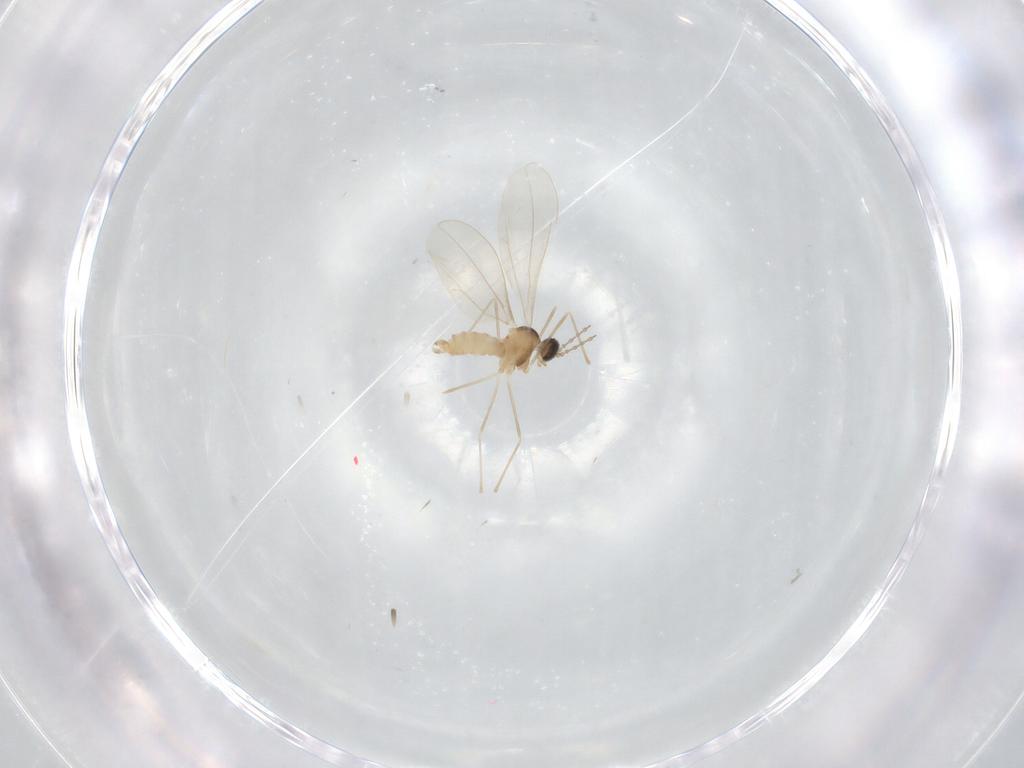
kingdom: Animalia
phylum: Arthropoda
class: Insecta
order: Diptera
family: Cecidomyiidae
